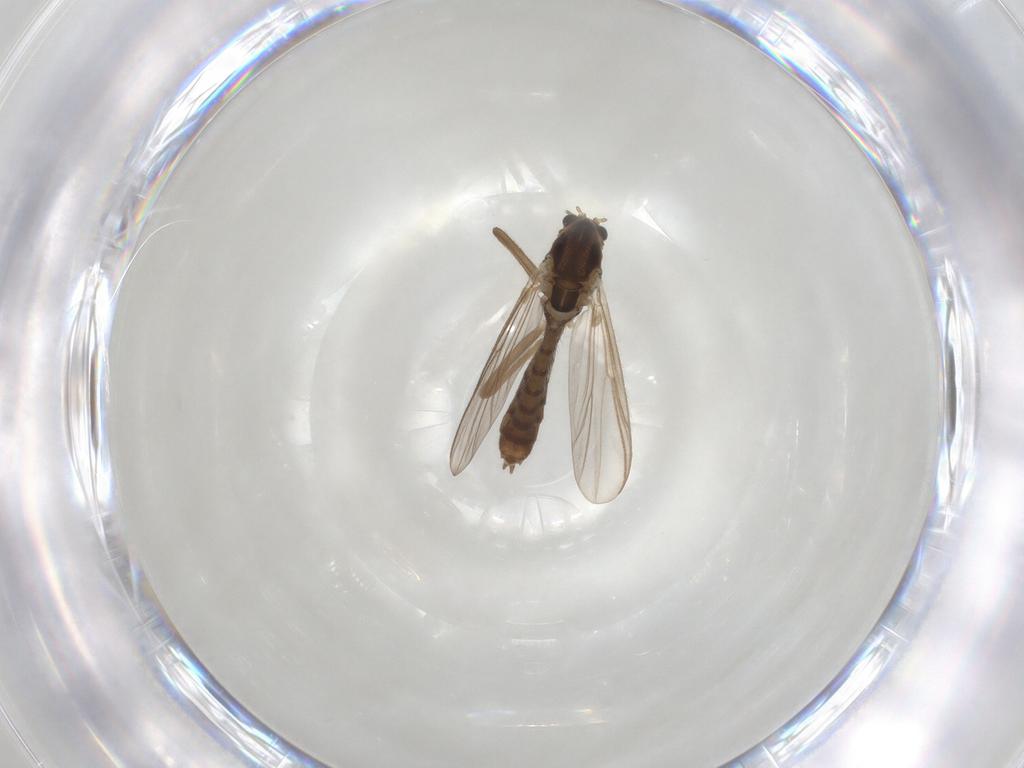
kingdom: Animalia
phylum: Arthropoda
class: Insecta
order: Diptera
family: Chironomidae
